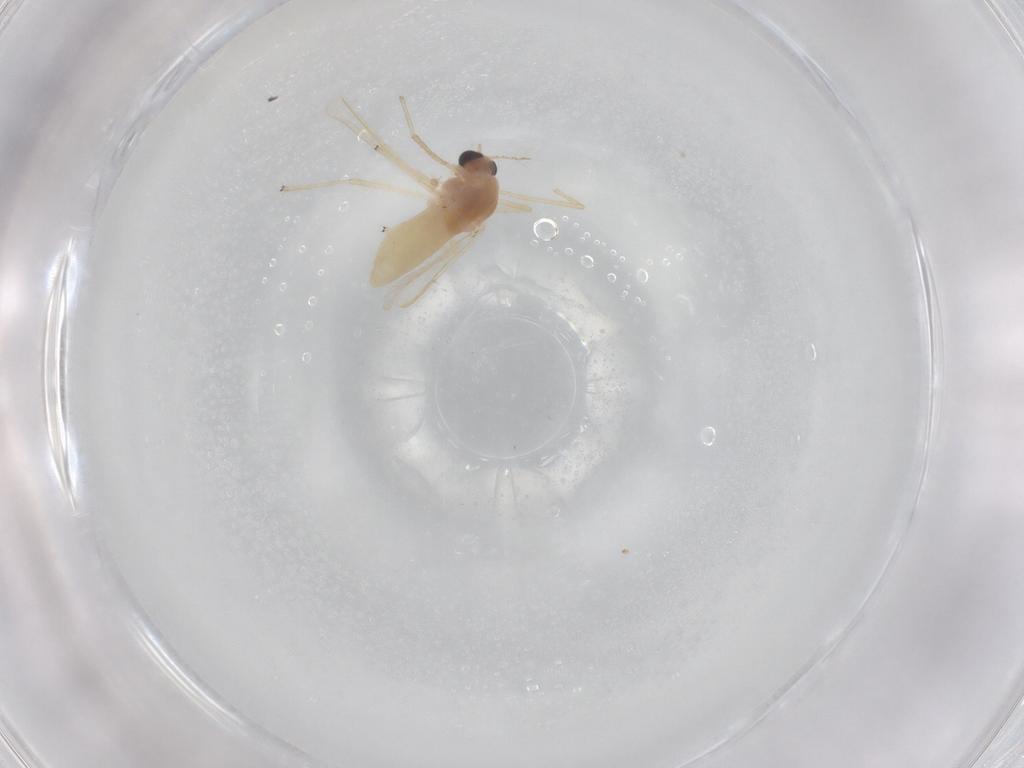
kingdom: Animalia
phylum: Arthropoda
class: Insecta
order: Diptera
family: Chironomidae
